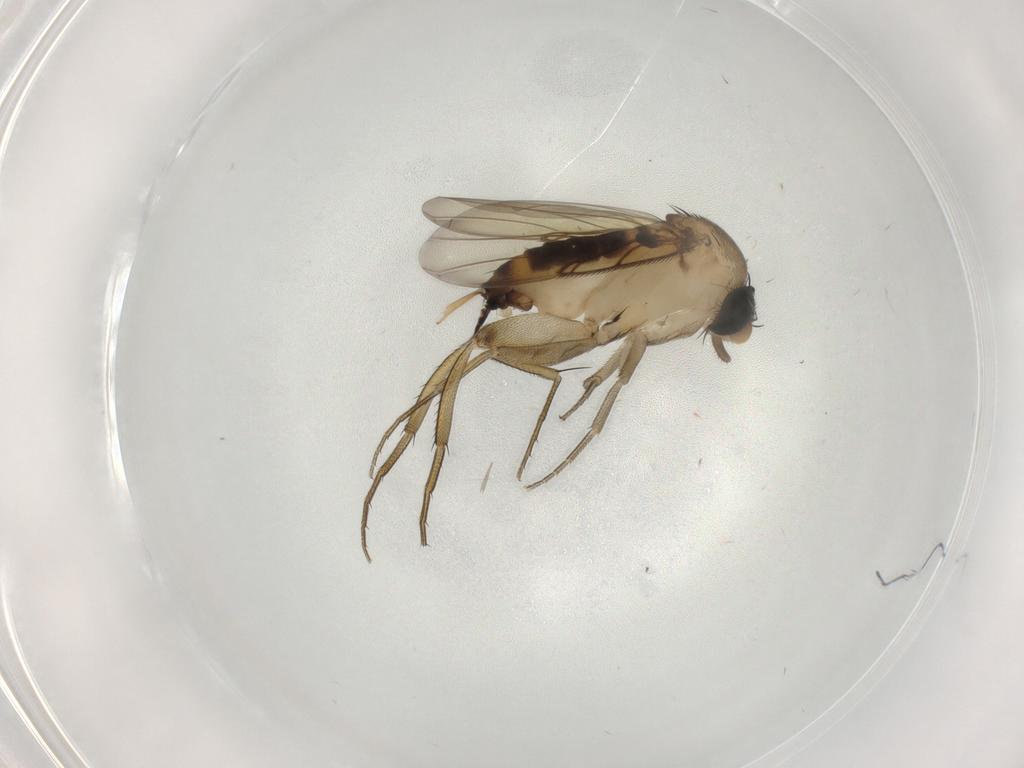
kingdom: Animalia
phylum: Arthropoda
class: Insecta
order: Diptera
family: Phoridae
